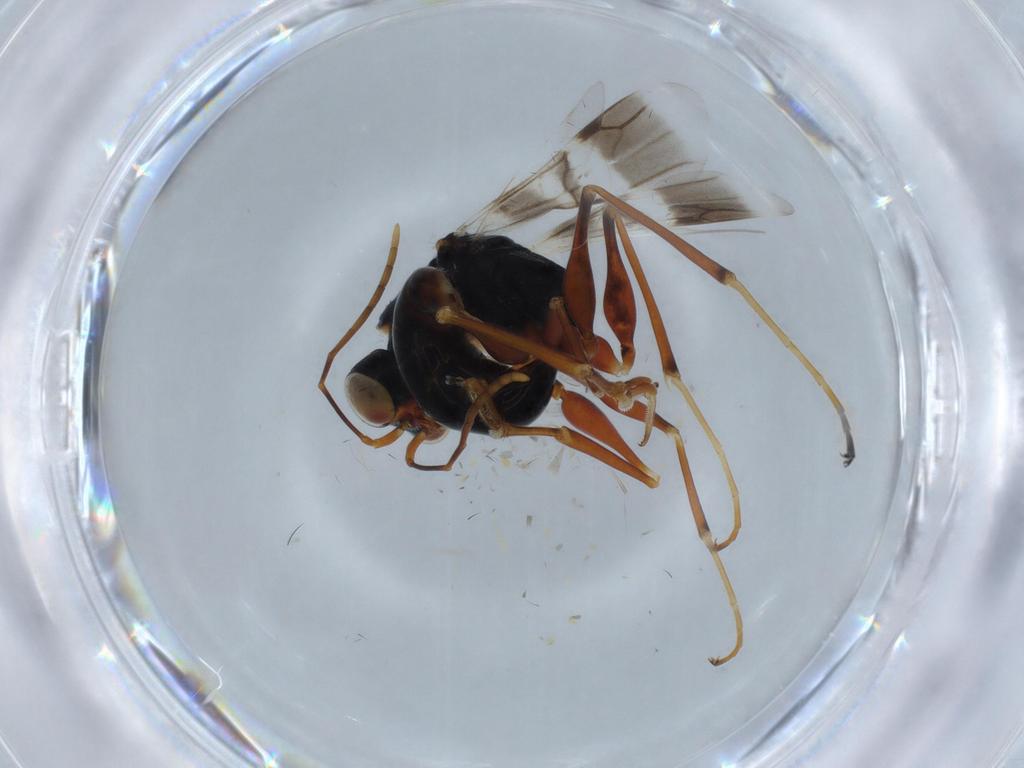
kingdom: Animalia
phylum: Arthropoda
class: Insecta
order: Hymenoptera
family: Dryinidae
